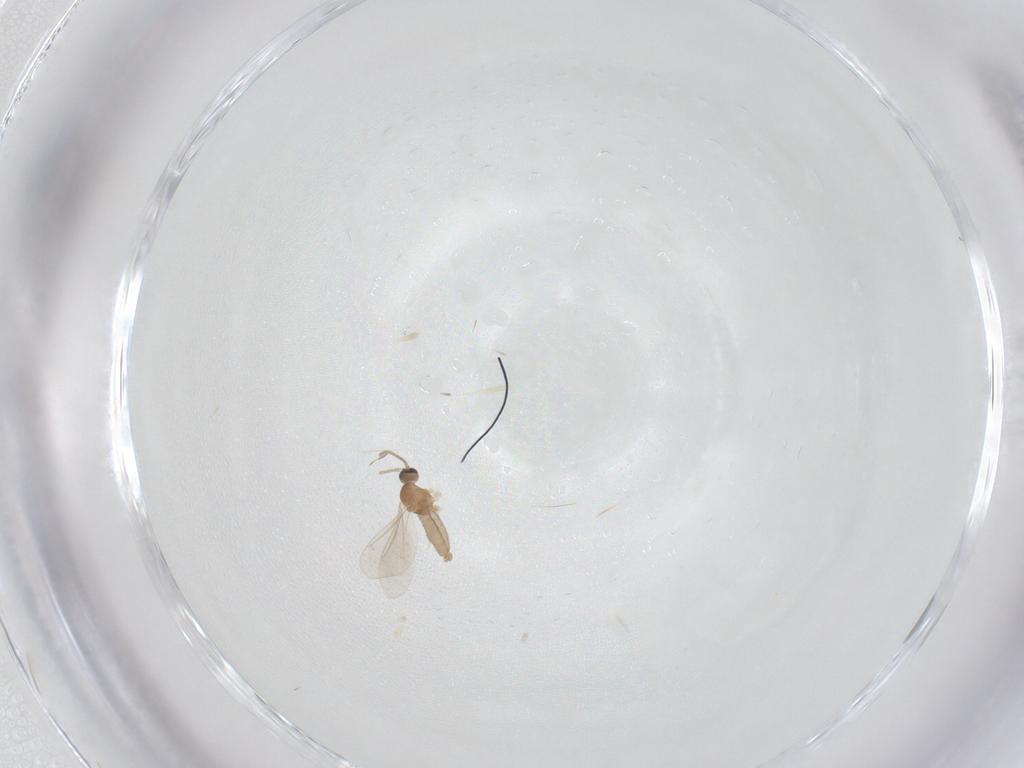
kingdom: Animalia
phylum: Arthropoda
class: Insecta
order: Diptera
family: Cecidomyiidae
